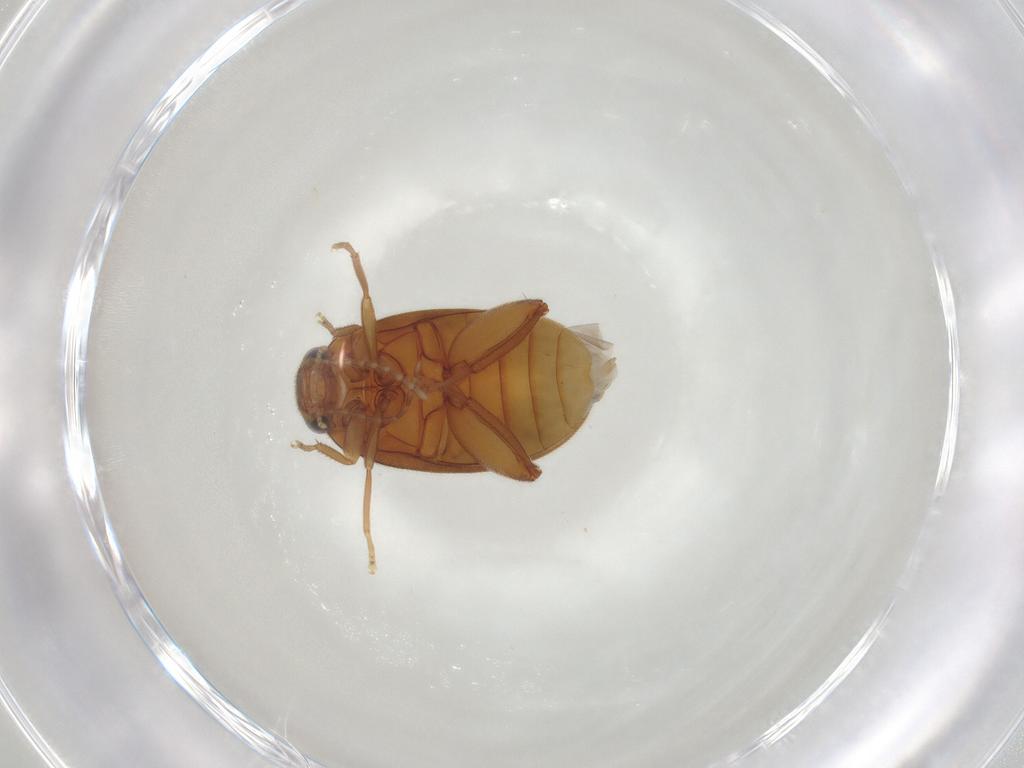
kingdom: Animalia
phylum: Arthropoda
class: Insecta
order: Coleoptera
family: Scirtidae
